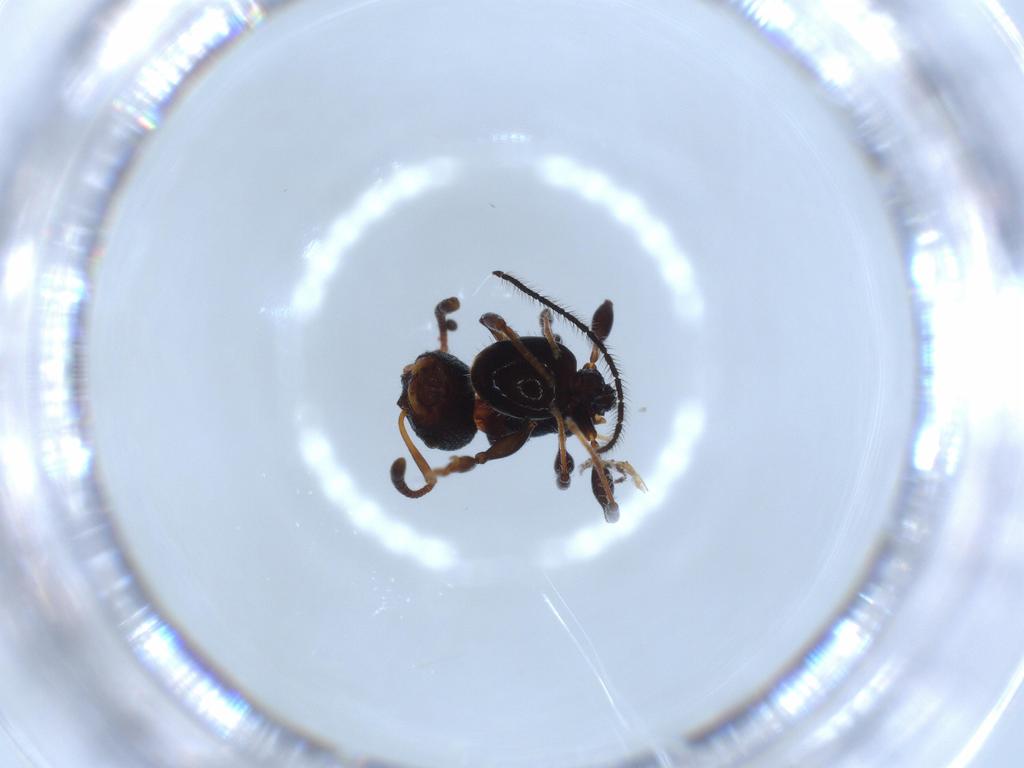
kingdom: Animalia
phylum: Arthropoda
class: Insecta
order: Hymenoptera
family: Diparidae
